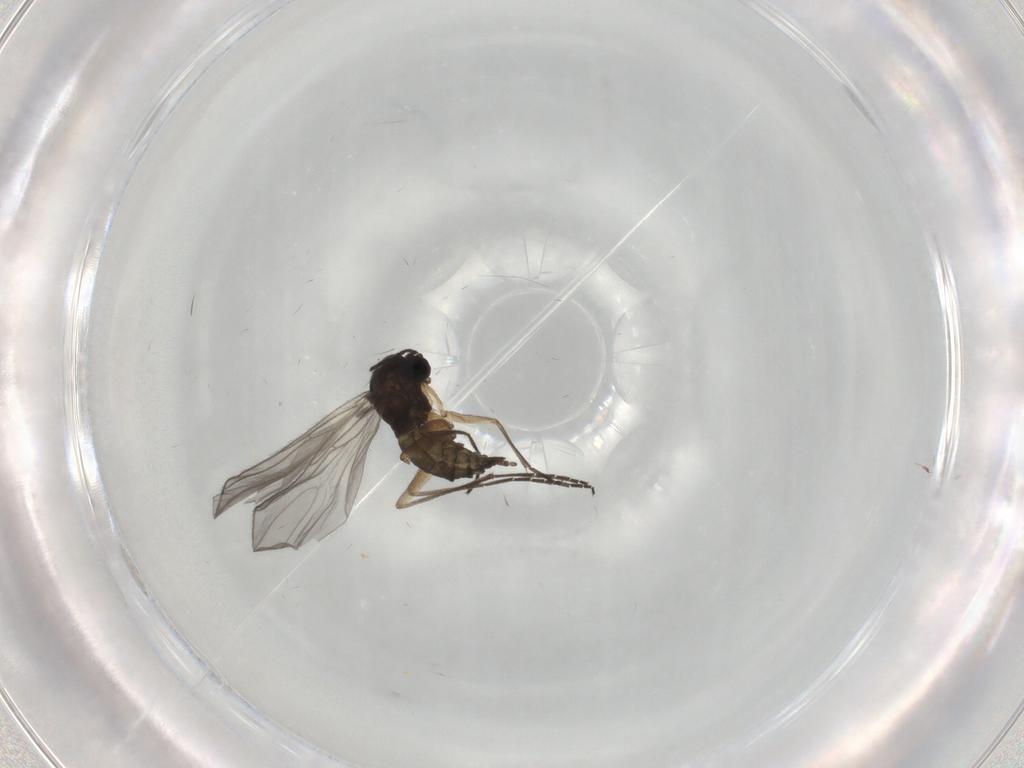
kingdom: Animalia
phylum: Arthropoda
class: Insecta
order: Diptera
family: Sciaridae
